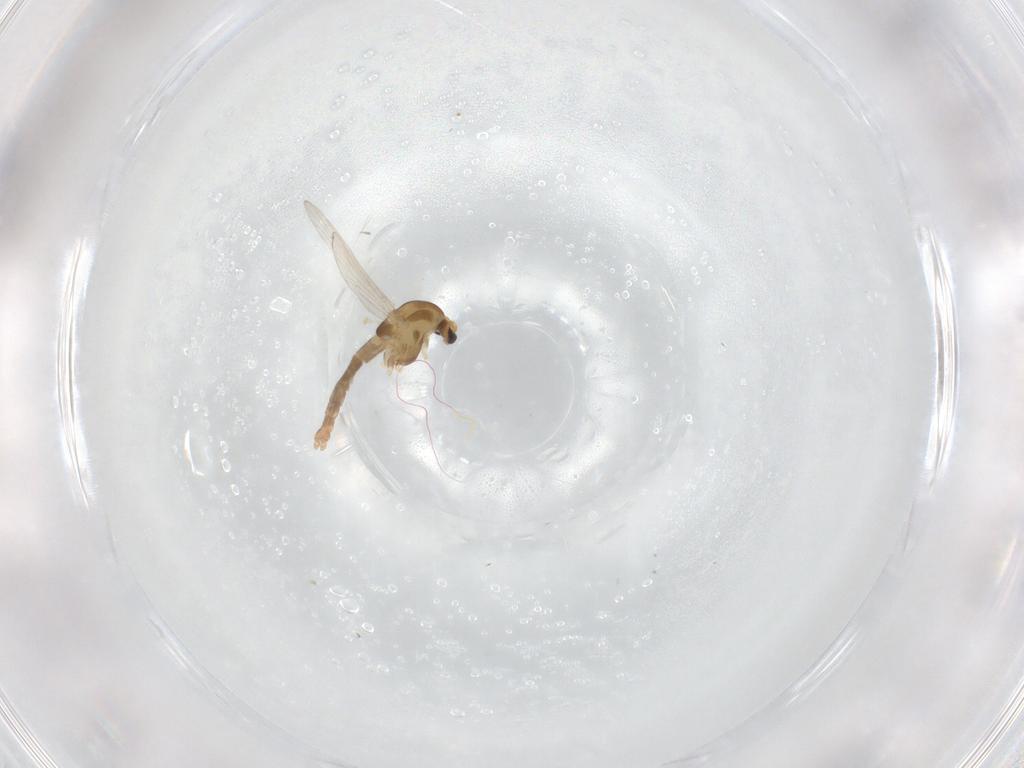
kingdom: Animalia
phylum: Arthropoda
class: Insecta
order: Diptera
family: Chironomidae
